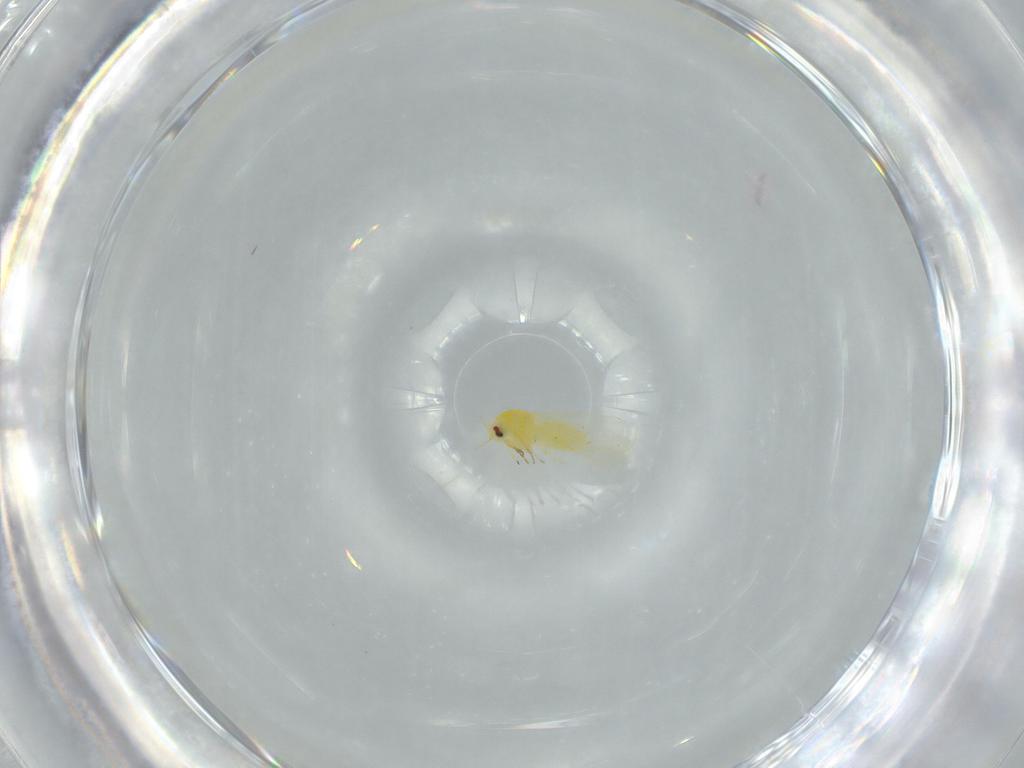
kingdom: Animalia
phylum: Arthropoda
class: Insecta
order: Hemiptera
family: Aleyrodidae
